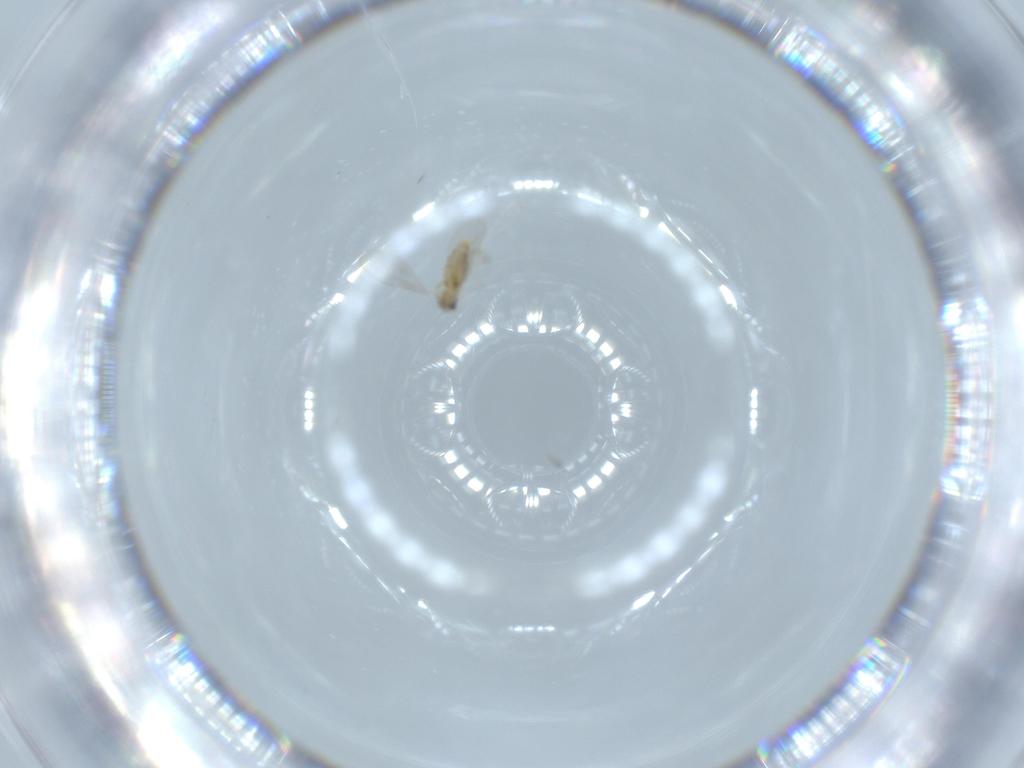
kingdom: Animalia
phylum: Arthropoda
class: Insecta
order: Diptera
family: Cecidomyiidae
